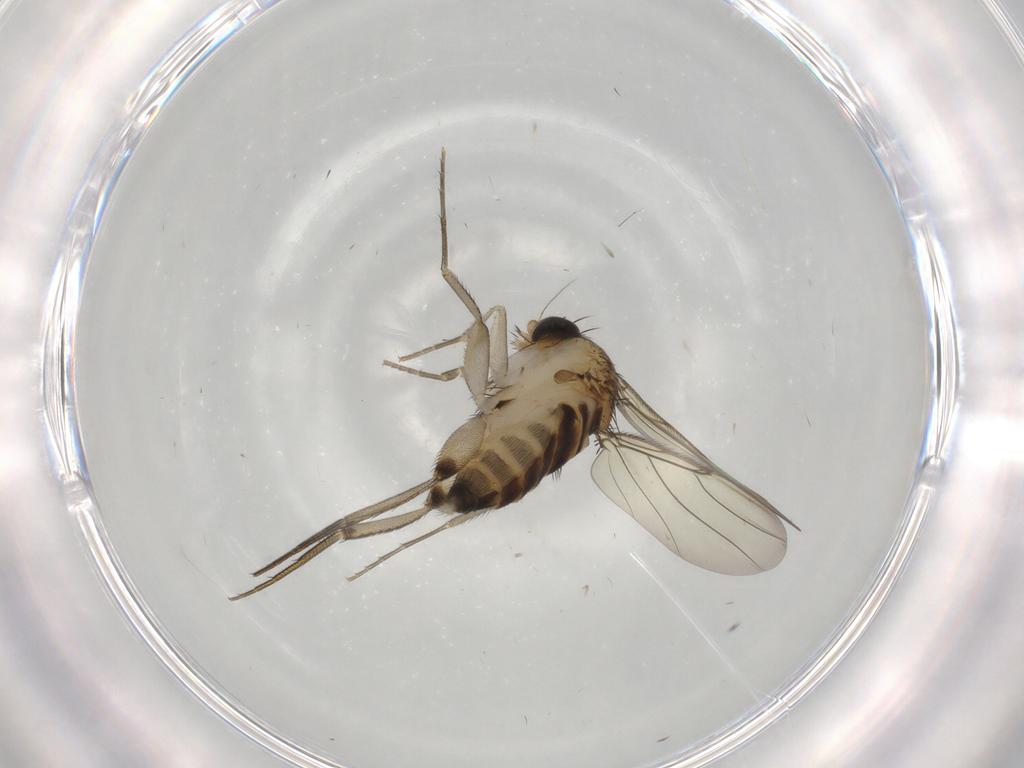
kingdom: Animalia
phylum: Arthropoda
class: Insecta
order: Diptera
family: Phoridae
